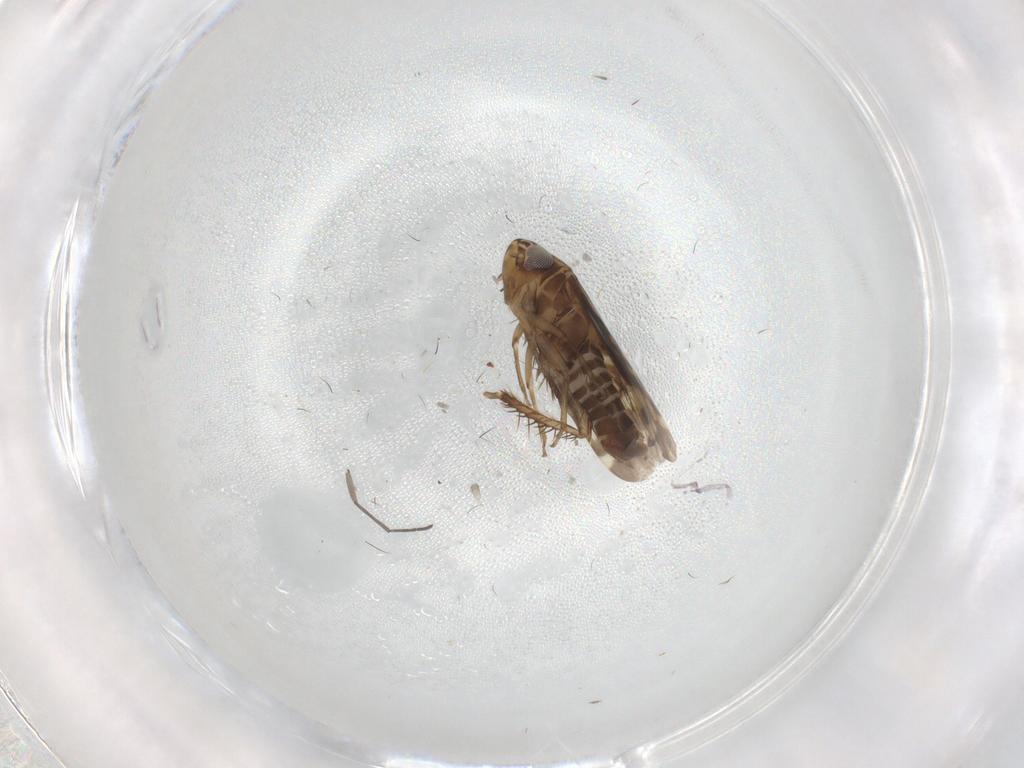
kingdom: Animalia
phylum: Arthropoda
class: Insecta
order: Hemiptera
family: Cicadellidae
